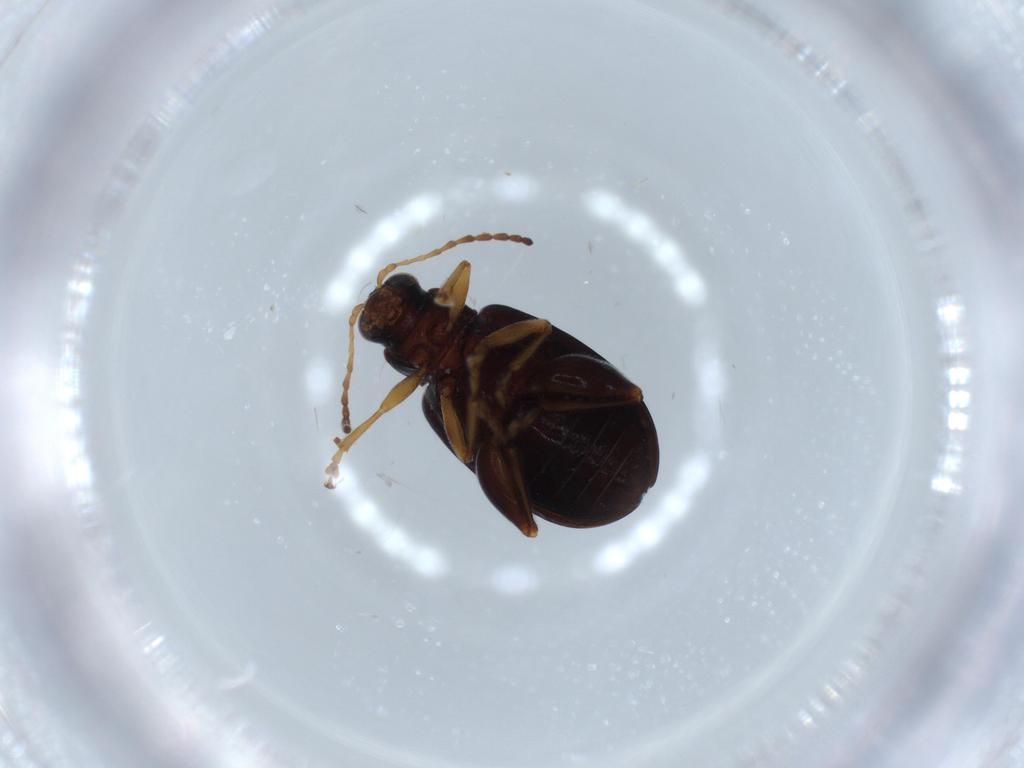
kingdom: Animalia
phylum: Arthropoda
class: Insecta
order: Coleoptera
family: Chrysomelidae
